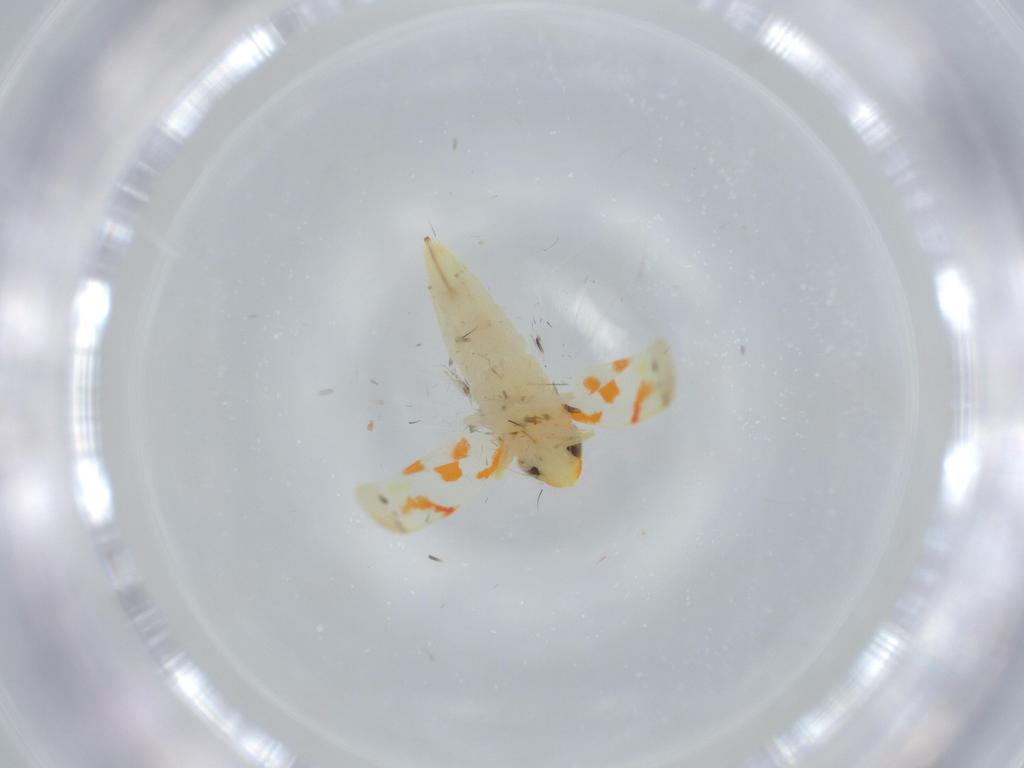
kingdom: Animalia
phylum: Arthropoda
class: Insecta
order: Hemiptera
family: Cicadellidae
